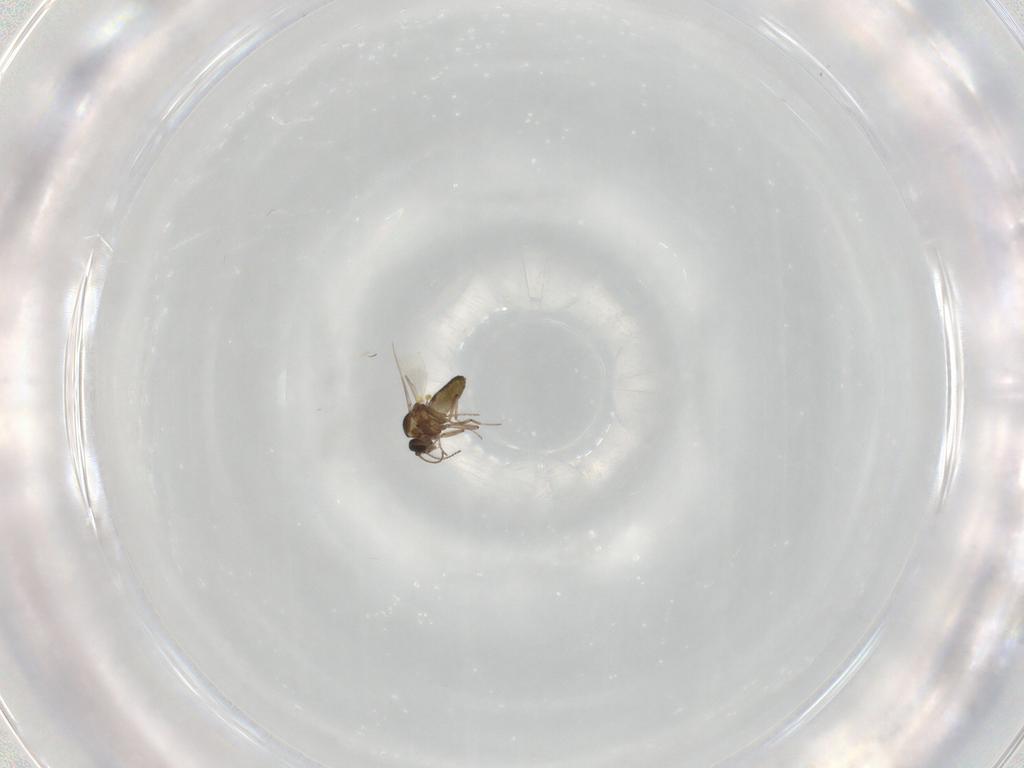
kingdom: Animalia
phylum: Arthropoda
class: Insecta
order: Diptera
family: Ceratopogonidae
